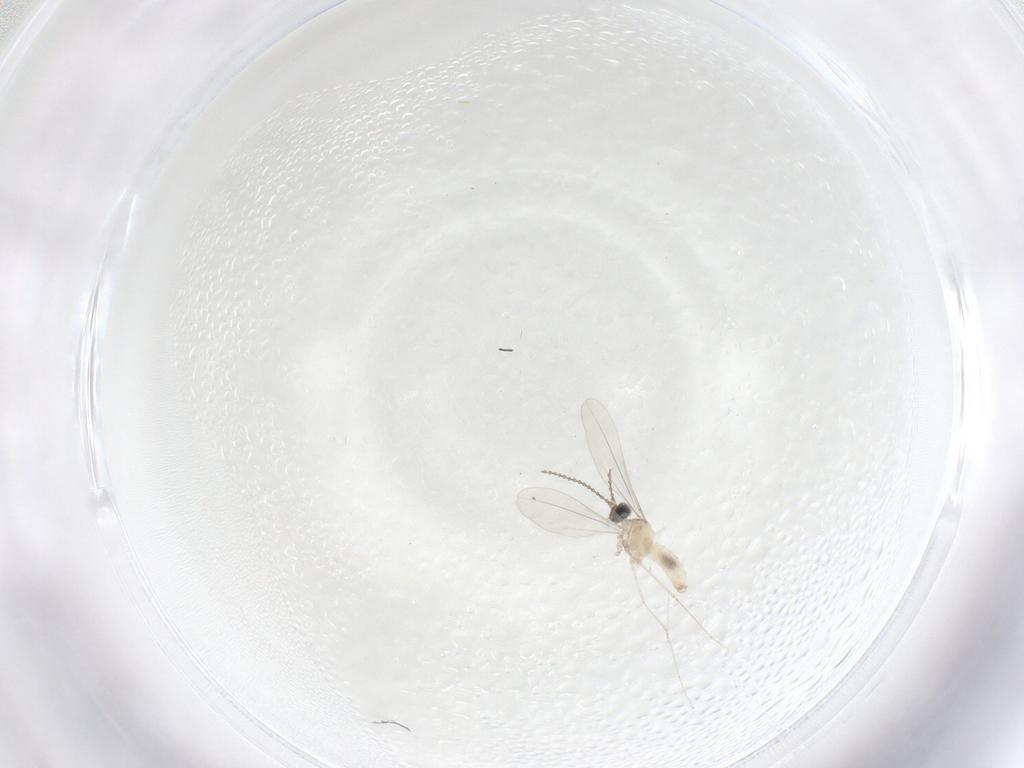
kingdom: Animalia
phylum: Arthropoda
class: Insecta
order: Diptera
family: Cecidomyiidae
